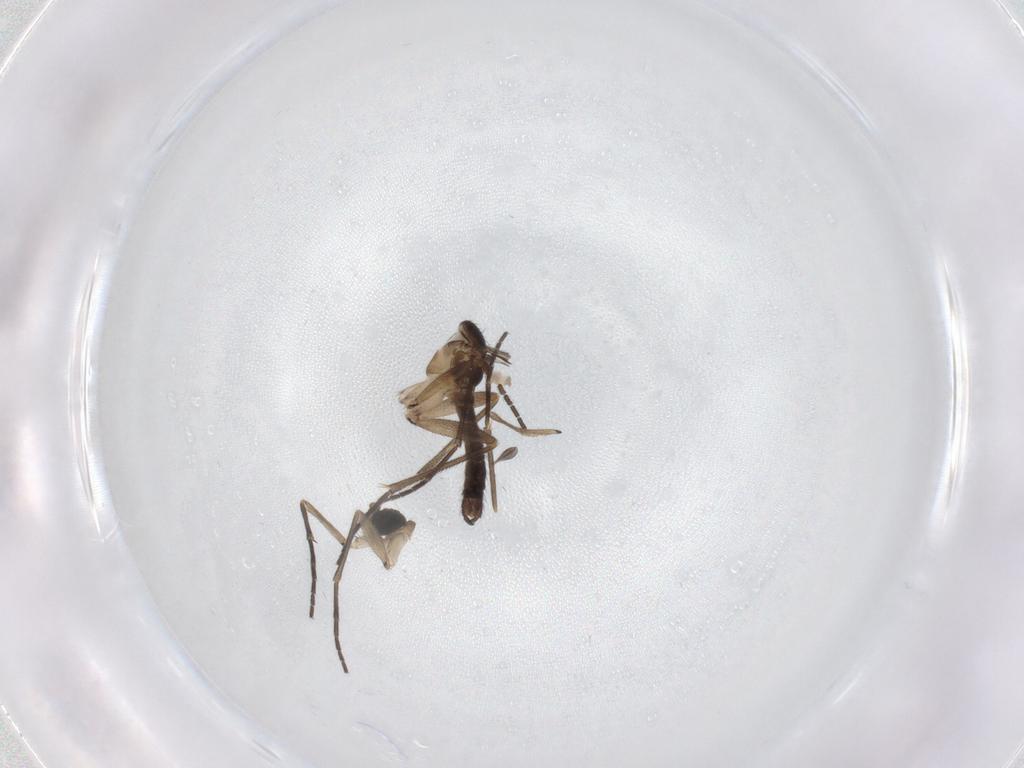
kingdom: Animalia
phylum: Arthropoda
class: Insecta
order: Diptera
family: Sciaridae
